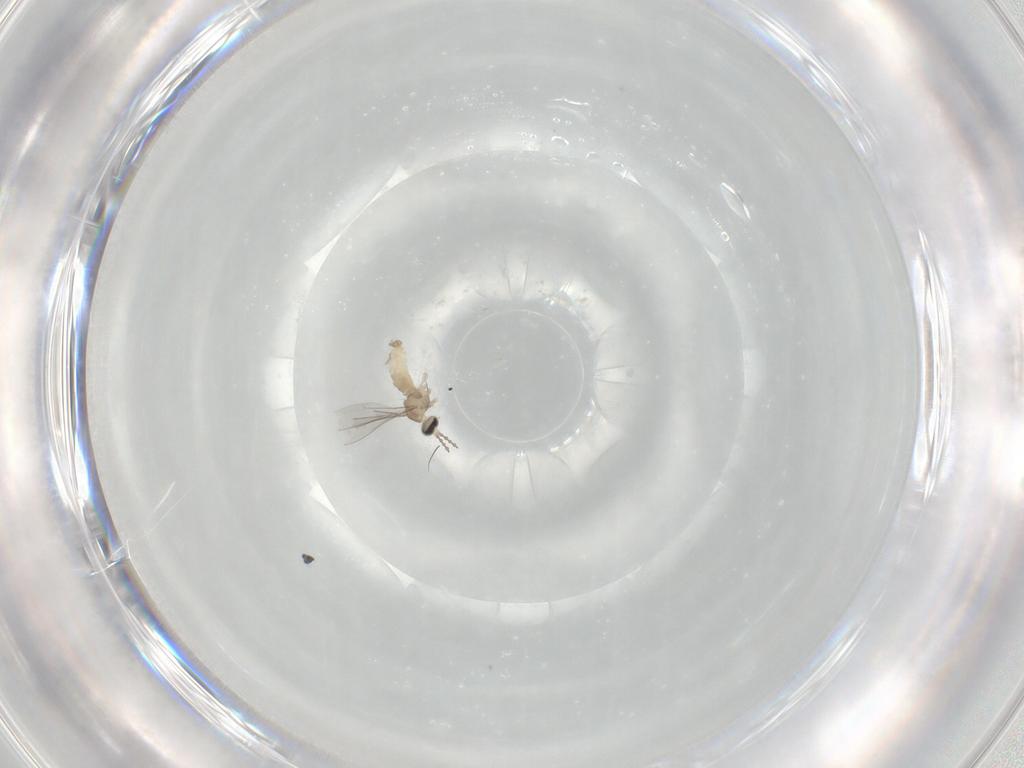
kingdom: Animalia
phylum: Arthropoda
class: Insecta
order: Diptera
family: Cecidomyiidae
